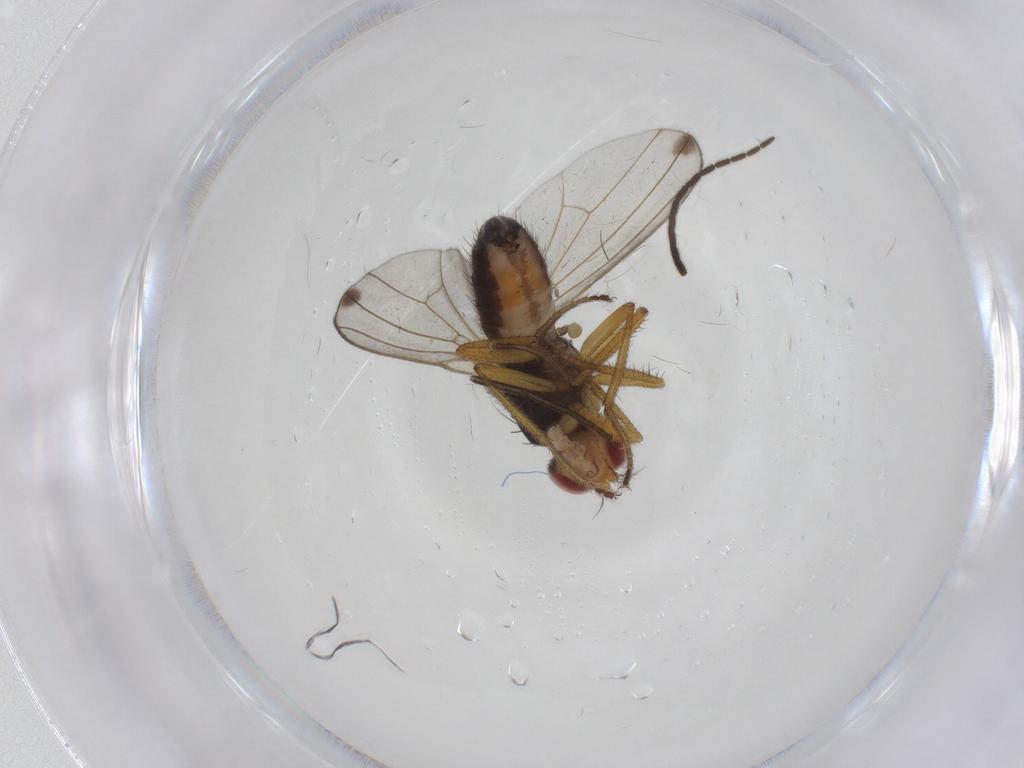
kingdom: Animalia
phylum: Arthropoda
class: Insecta
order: Diptera
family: Drosophilidae
